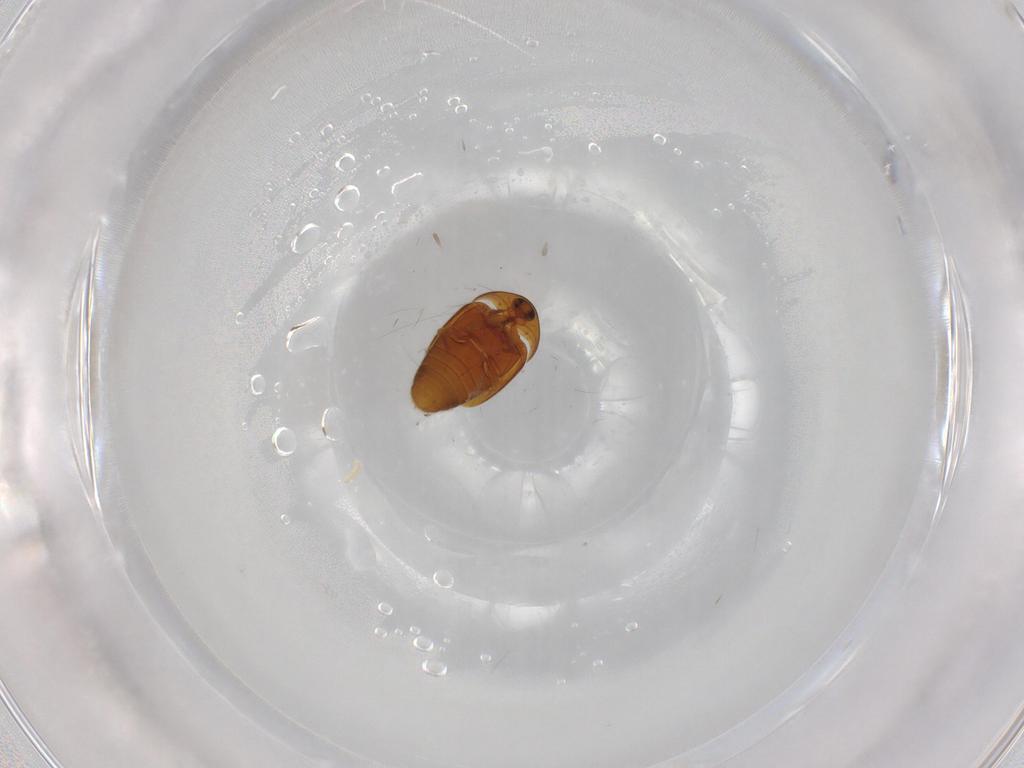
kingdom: Animalia
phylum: Arthropoda
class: Insecta
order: Coleoptera
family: Corylophidae
